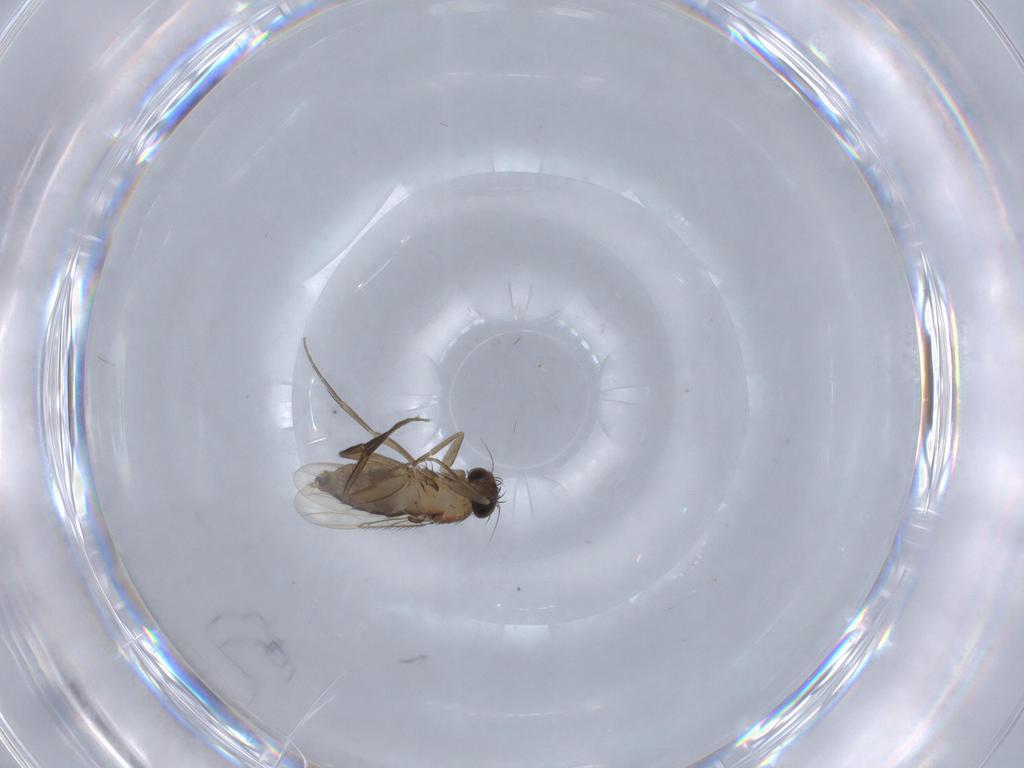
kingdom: Animalia
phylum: Arthropoda
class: Insecta
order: Diptera
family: Phoridae
